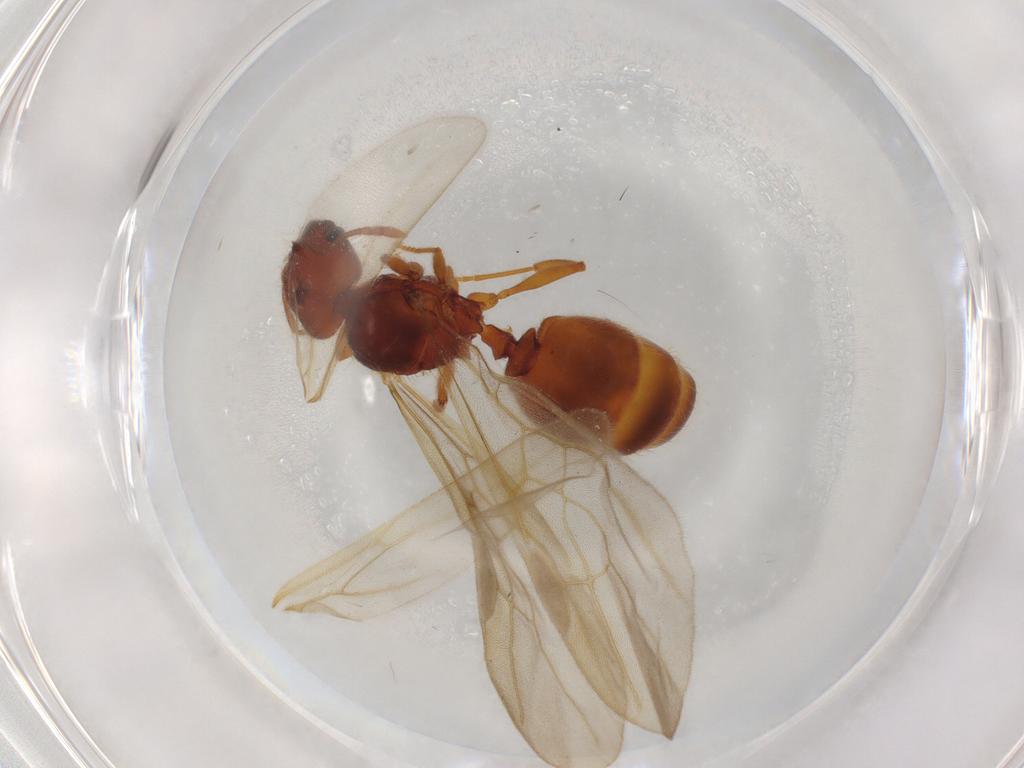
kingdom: Animalia
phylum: Arthropoda
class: Insecta
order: Hymenoptera
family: Formicidae
